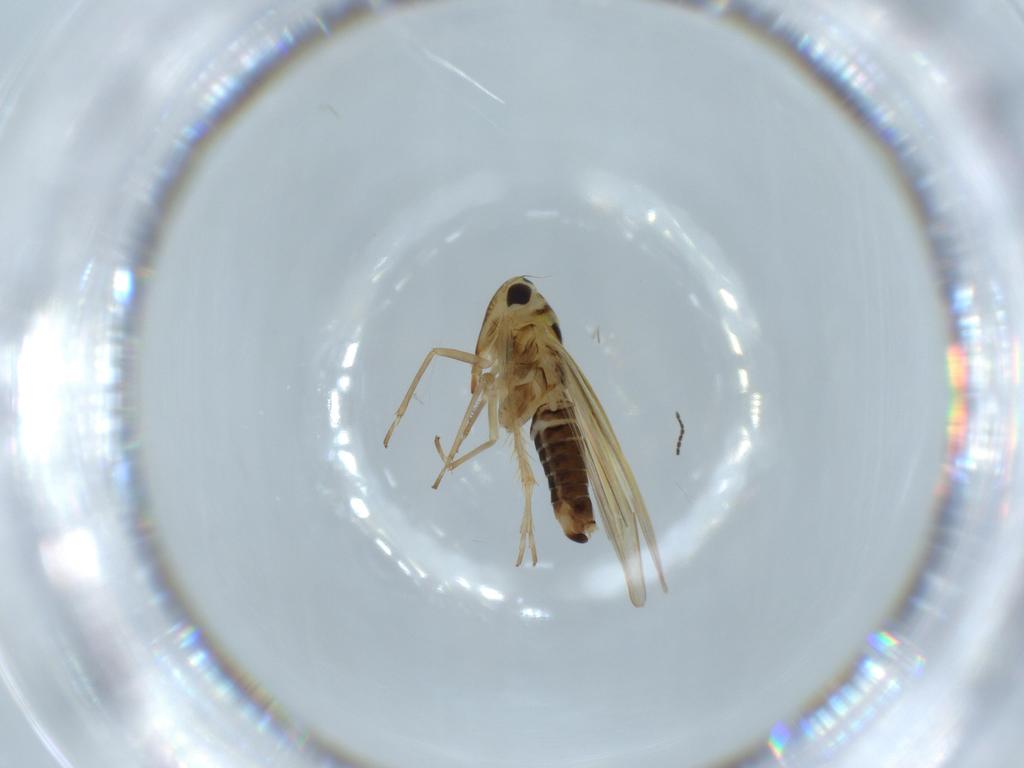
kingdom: Animalia
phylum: Arthropoda
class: Insecta
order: Hemiptera
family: Cicadellidae
